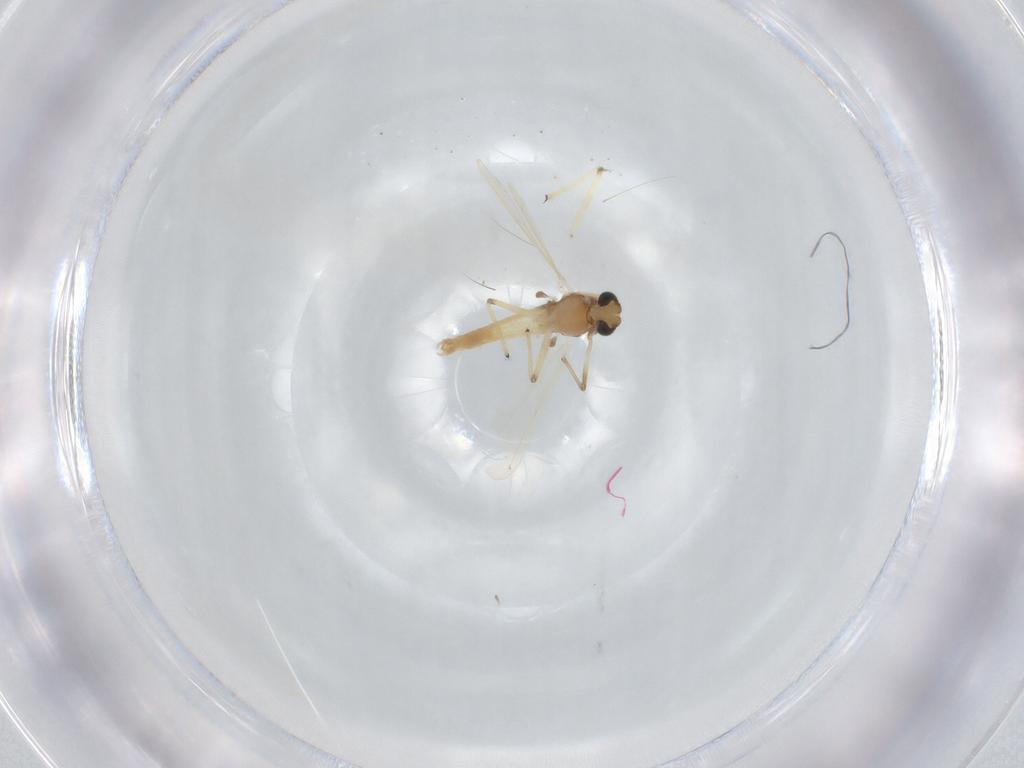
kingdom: Animalia
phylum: Arthropoda
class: Insecta
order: Diptera
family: Chironomidae
